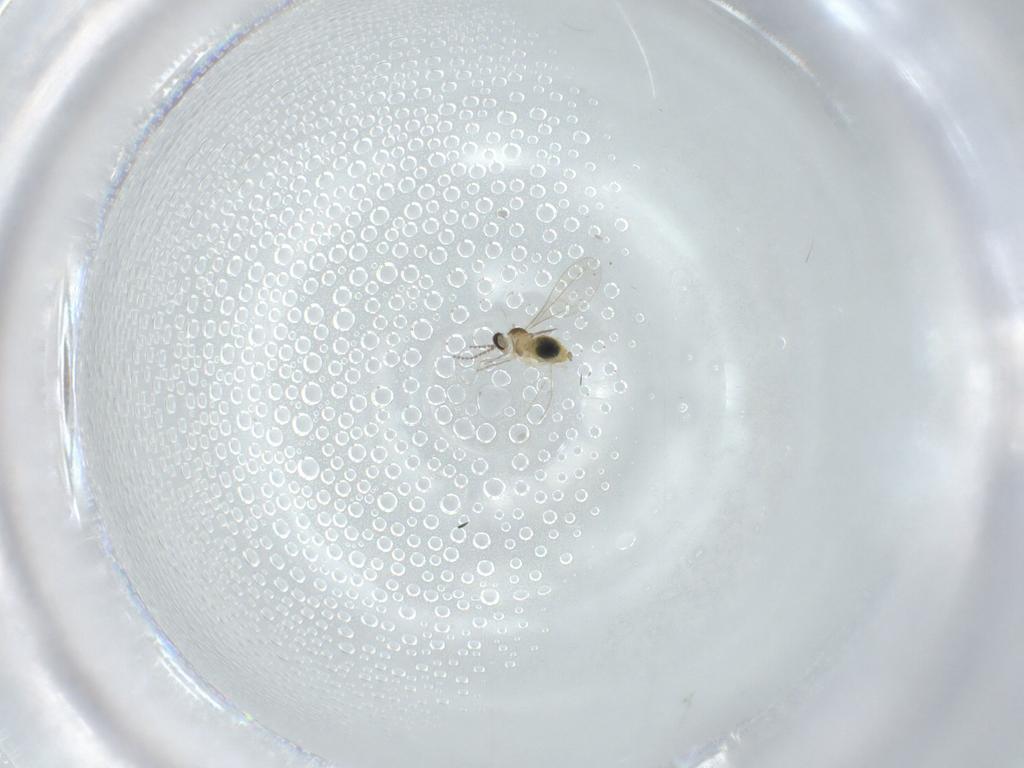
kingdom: Animalia
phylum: Arthropoda
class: Insecta
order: Diptera
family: Cecidomyiidae
